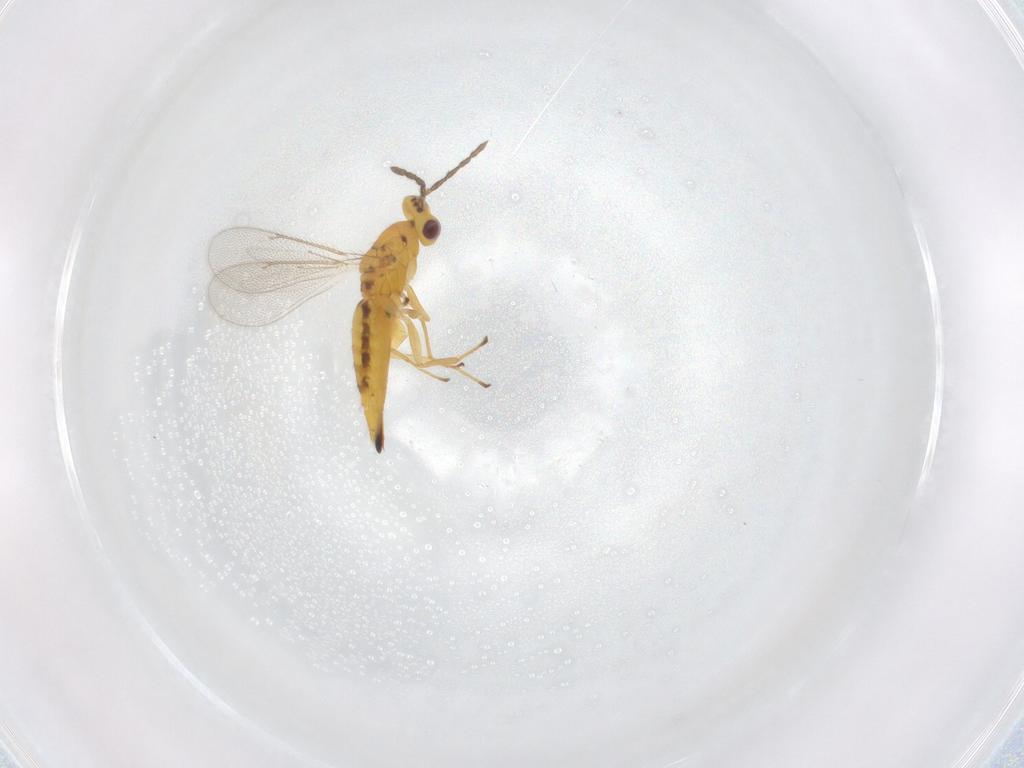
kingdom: Animalia
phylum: Arthropoda
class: Insecta
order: Hymenoptera
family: Eulophidae
